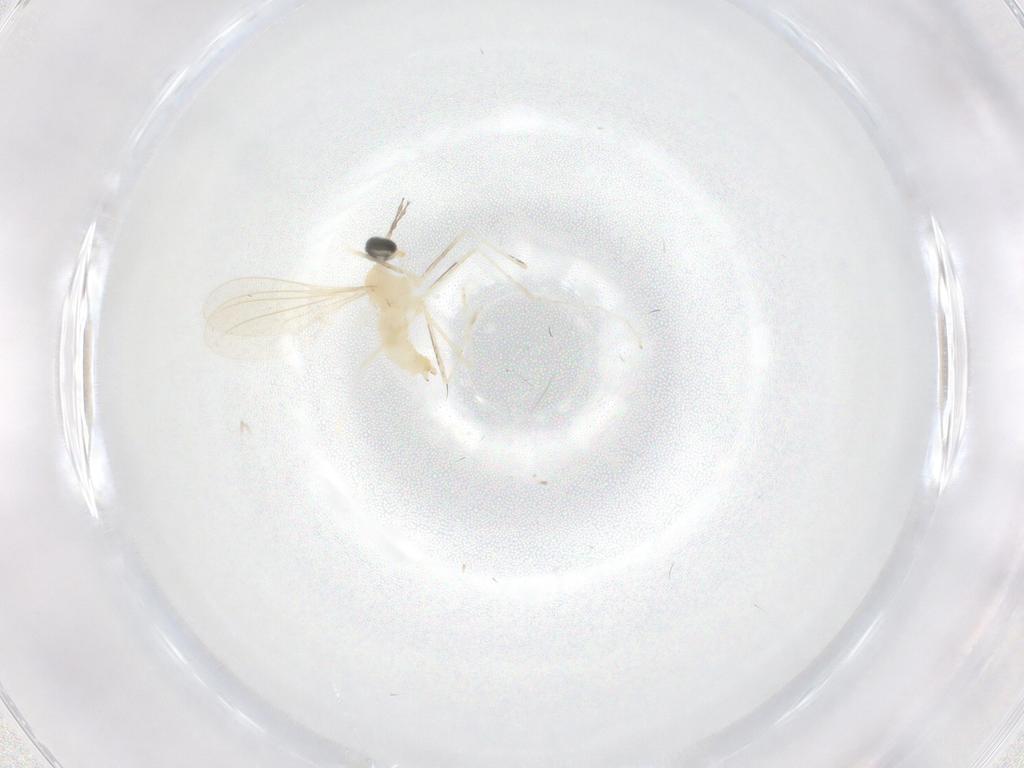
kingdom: Animalia
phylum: Arthropoda
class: Insecta
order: Diptera
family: Cecidomyiidae
